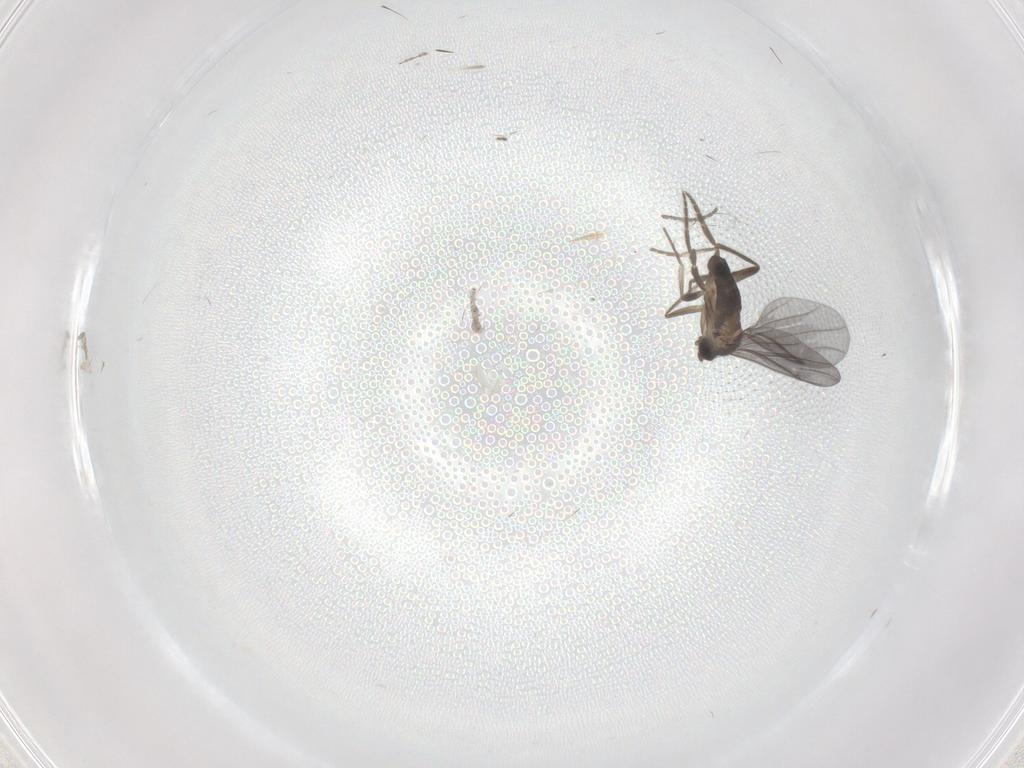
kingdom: Animalia
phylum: Arthropoda
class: Insecta
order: Diptera
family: Phoridae
